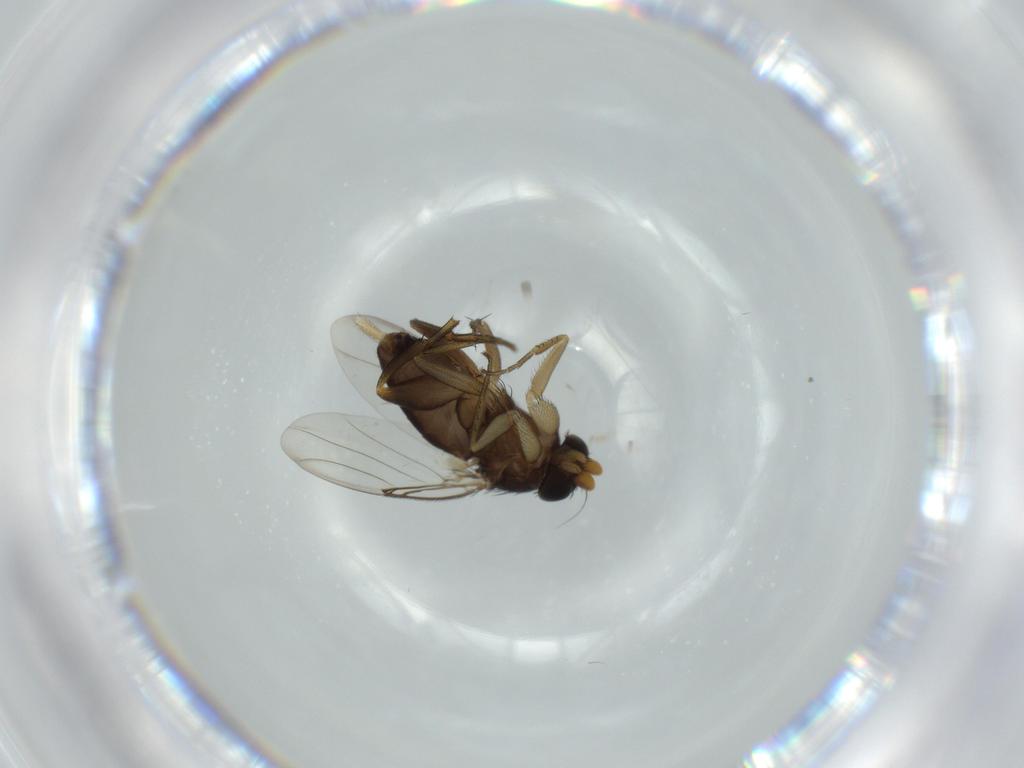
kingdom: Animalia
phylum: Arthropoda
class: Insecta
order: Diptera
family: Phoridae
